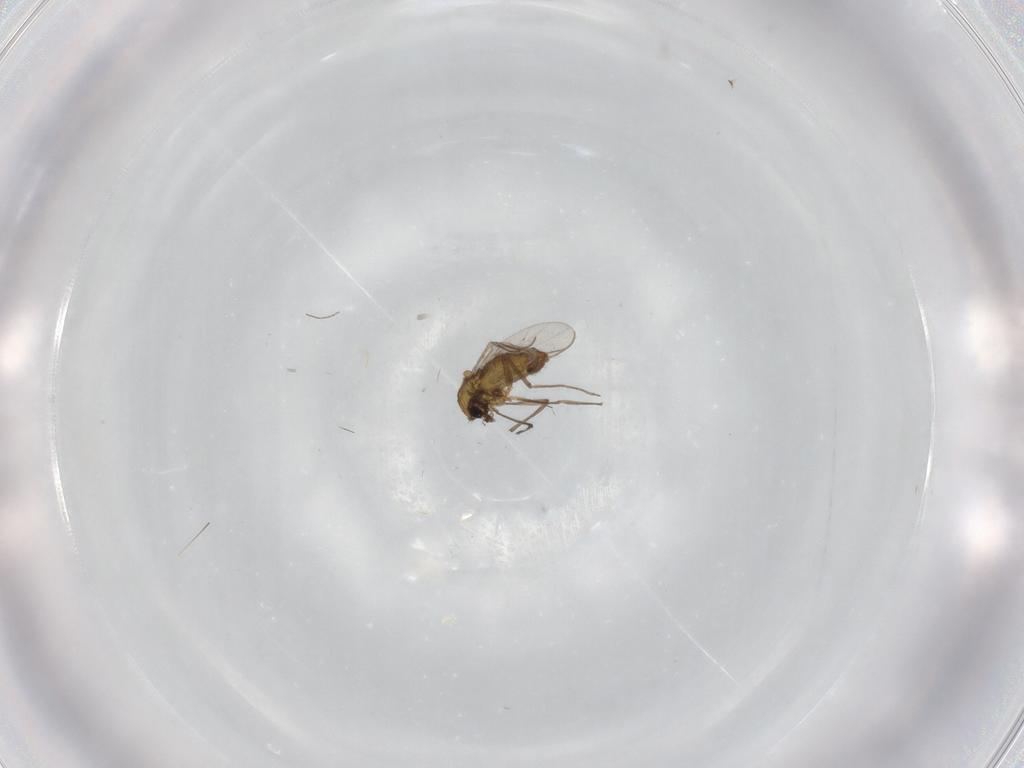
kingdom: Animalia
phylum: Arthropoda
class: Insecta
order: Diptera
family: Chironomidae
